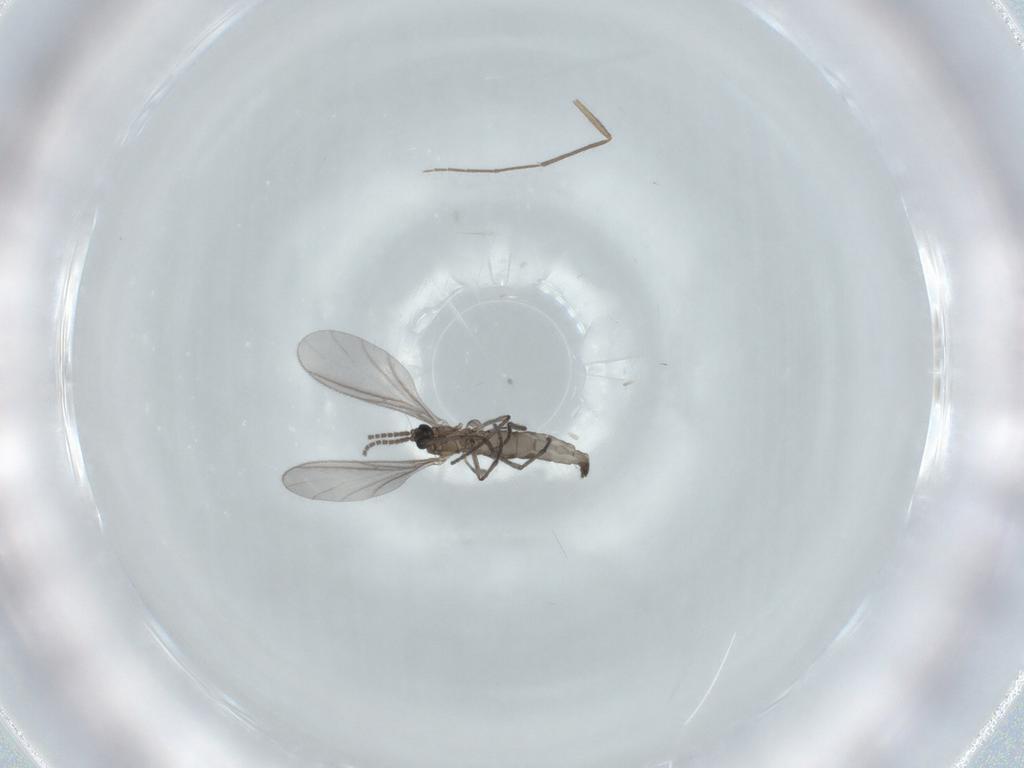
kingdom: Animalia
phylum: Arthropoda
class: Insecta
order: Diptera
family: Sciaridae
